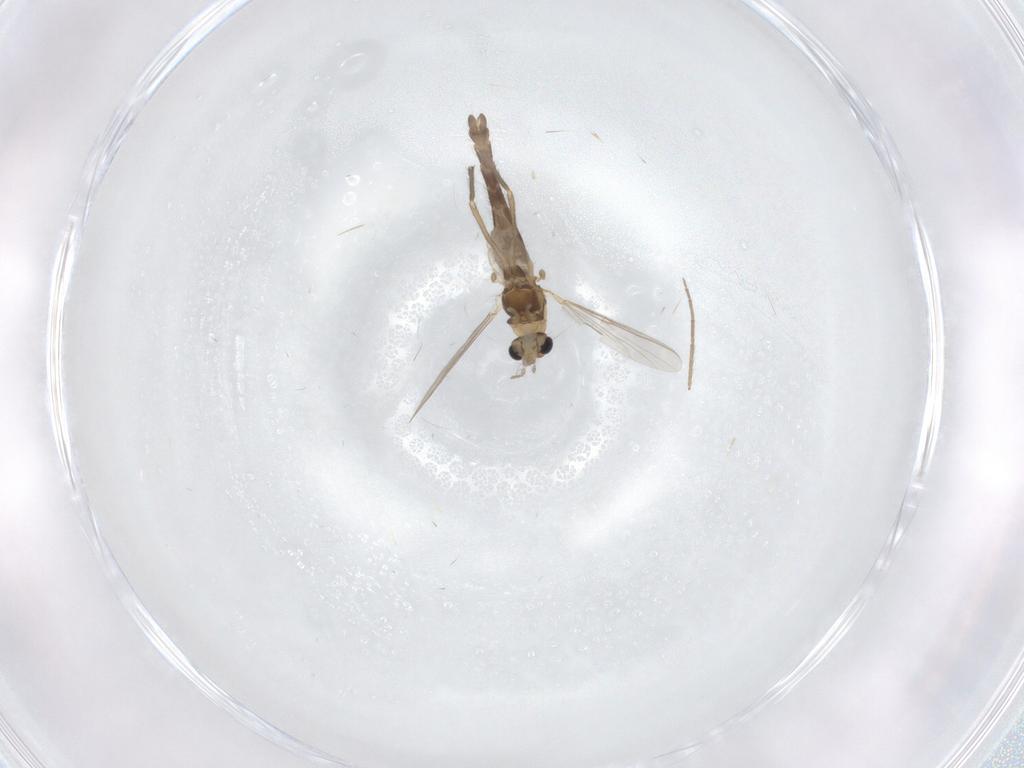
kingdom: Animalia
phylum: Arthropoda
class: Insecta
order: Diptera
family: Chironomidae
